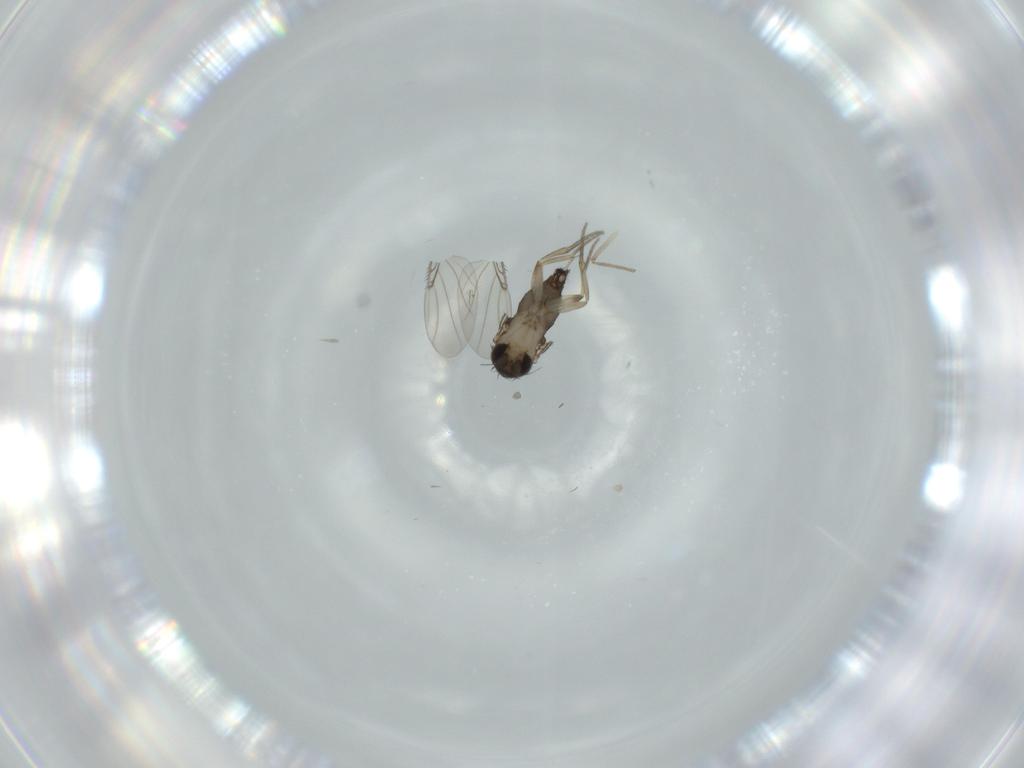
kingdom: Animalia
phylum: Arthropoda
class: Insecta
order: Diptera
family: Phoridae
